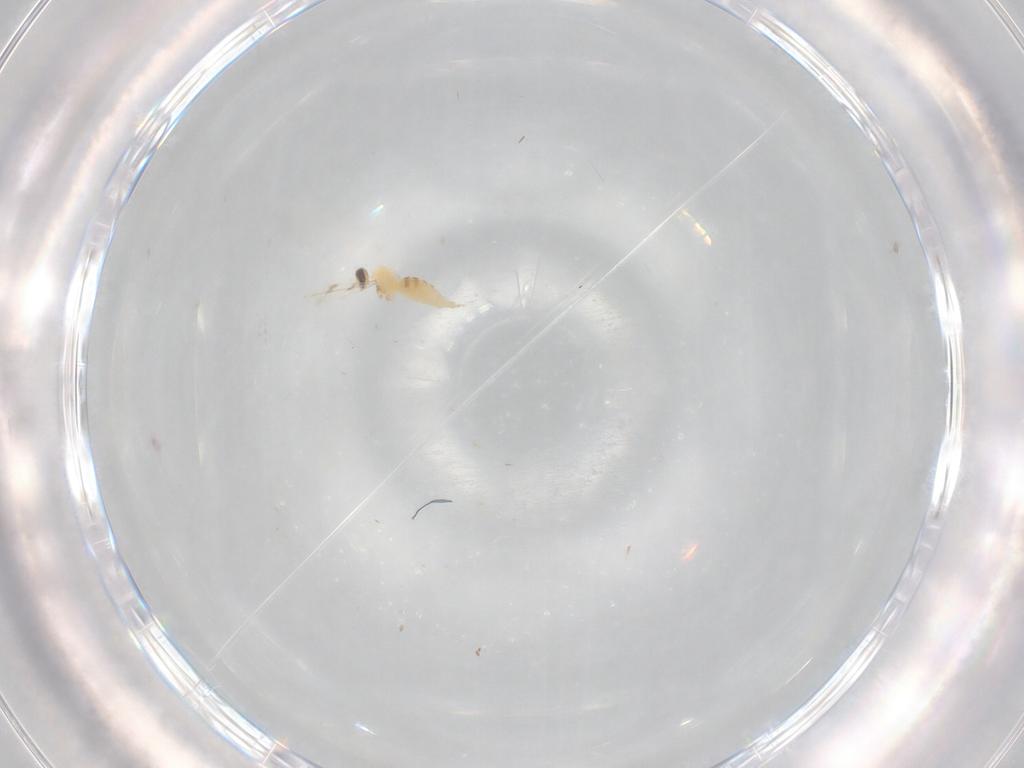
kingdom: Animalia
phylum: Arthropoda
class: Insecta
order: Diptera
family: Cecidomyiidae
